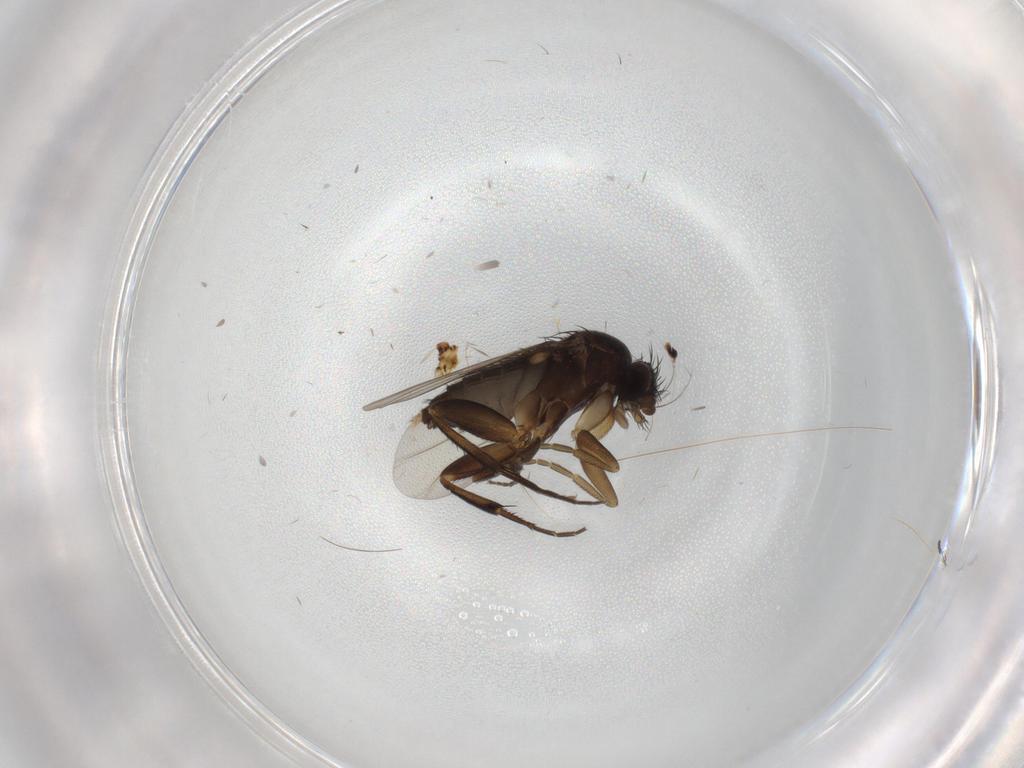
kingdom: Animalia
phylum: Arthropoda
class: Insecta
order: Diptera
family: Phoridae
